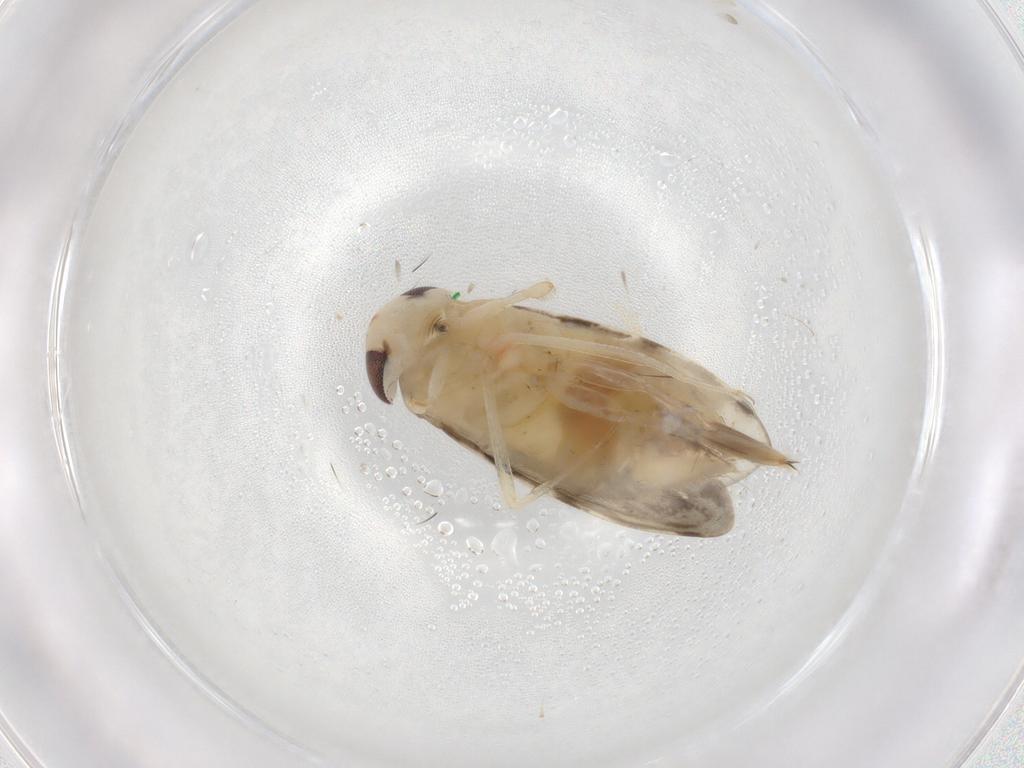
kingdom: Animalia
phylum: Arthropoda
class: Insecta
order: Hemiptera
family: Corixidae
